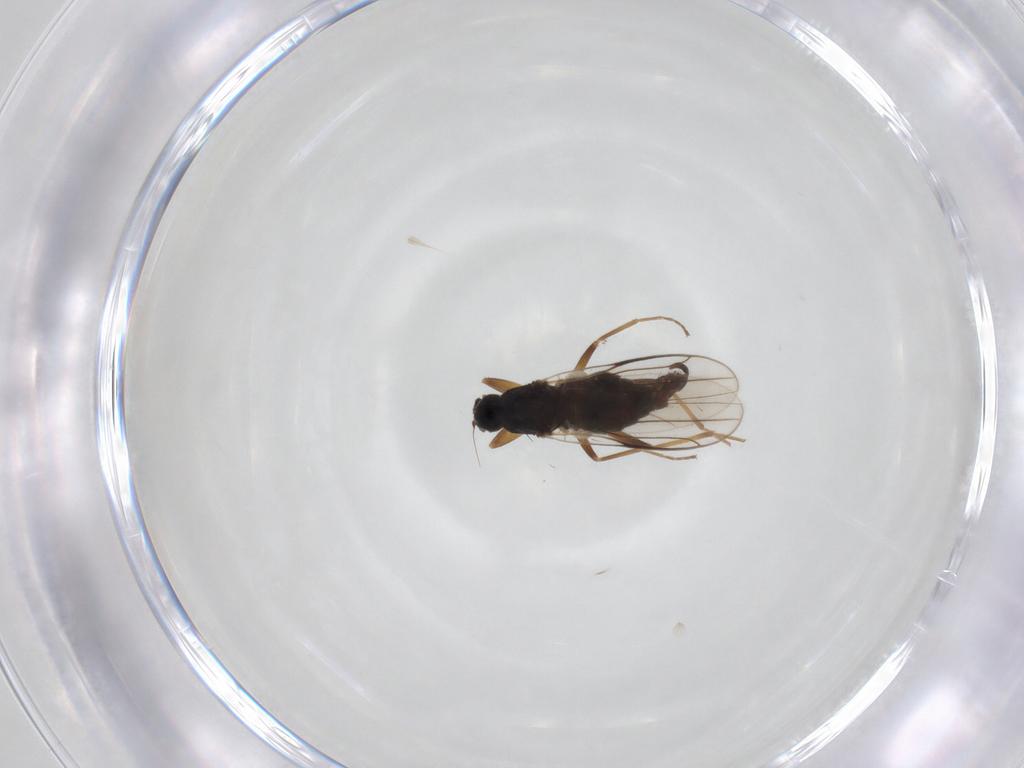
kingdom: Animalia
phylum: Arthropoda
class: Insecta
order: Diptera
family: Hybotidae
